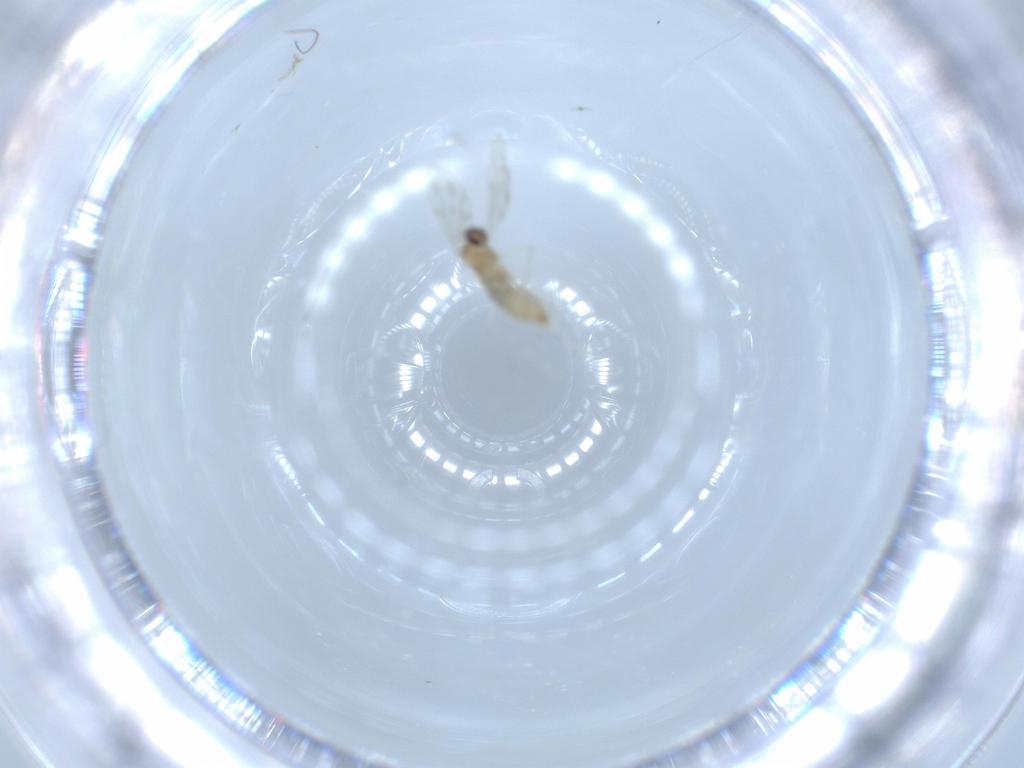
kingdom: Animalia
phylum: Arthropoda
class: Insecta
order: Diptera
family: Cecidomyiidae
